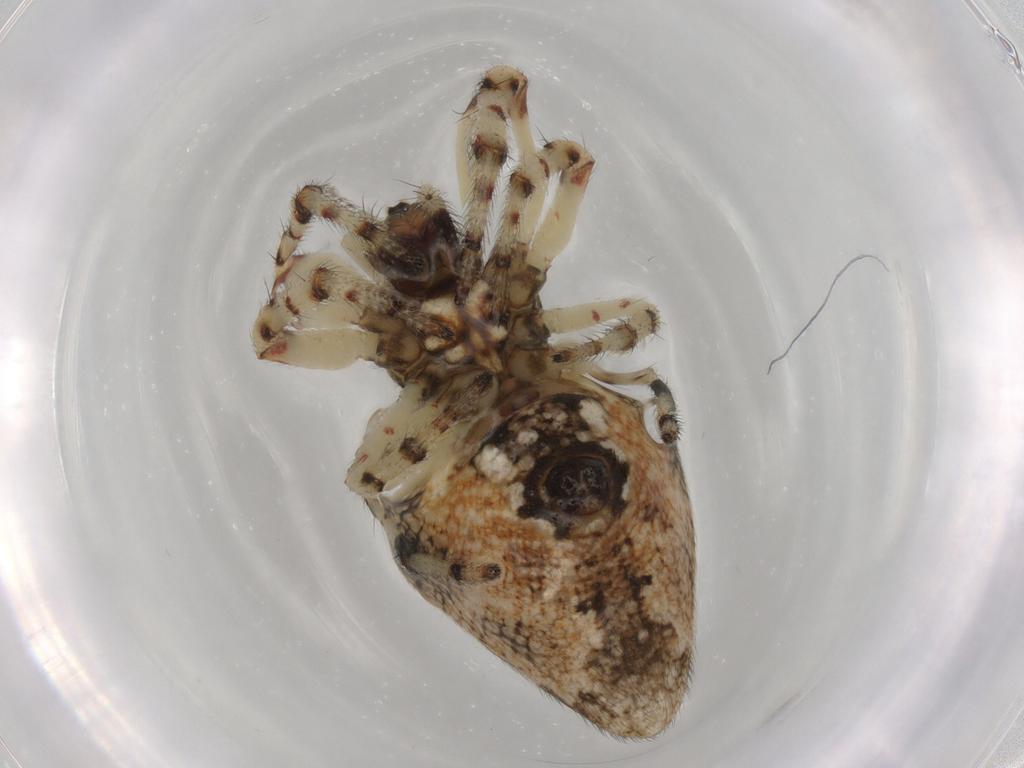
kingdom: Animalia
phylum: Arthropoda
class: Arachnida
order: Araneae
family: Araneidae
